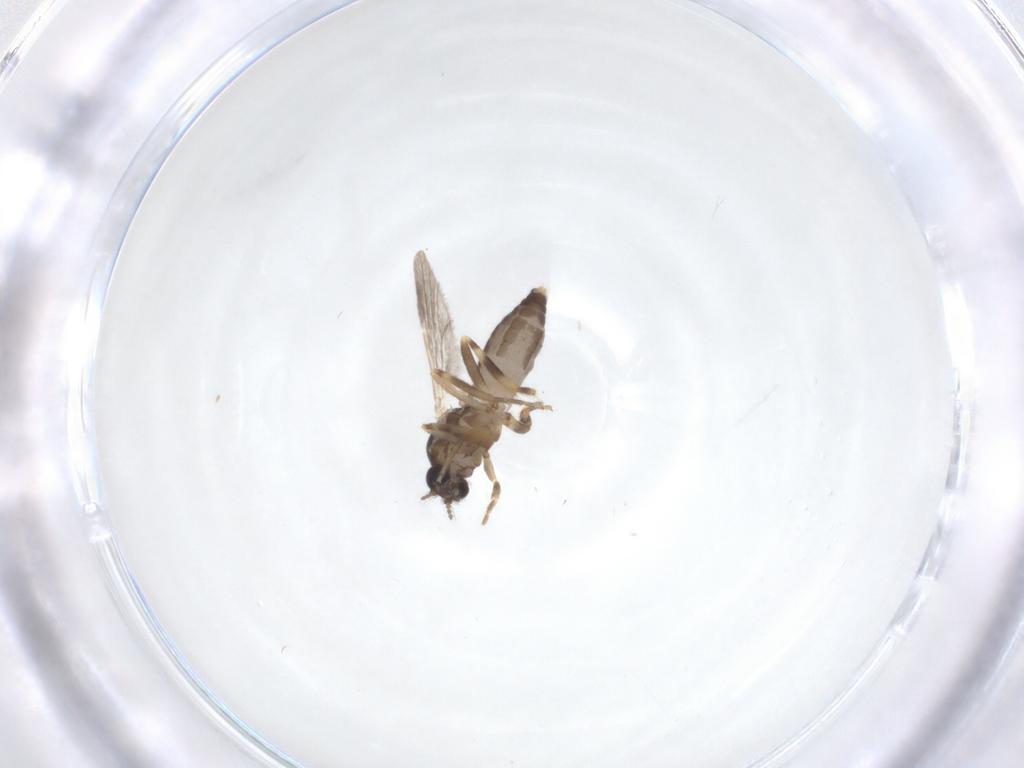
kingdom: Animalia
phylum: Arthropoda
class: Insecta
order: Diptera
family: Ceratopogonidae
